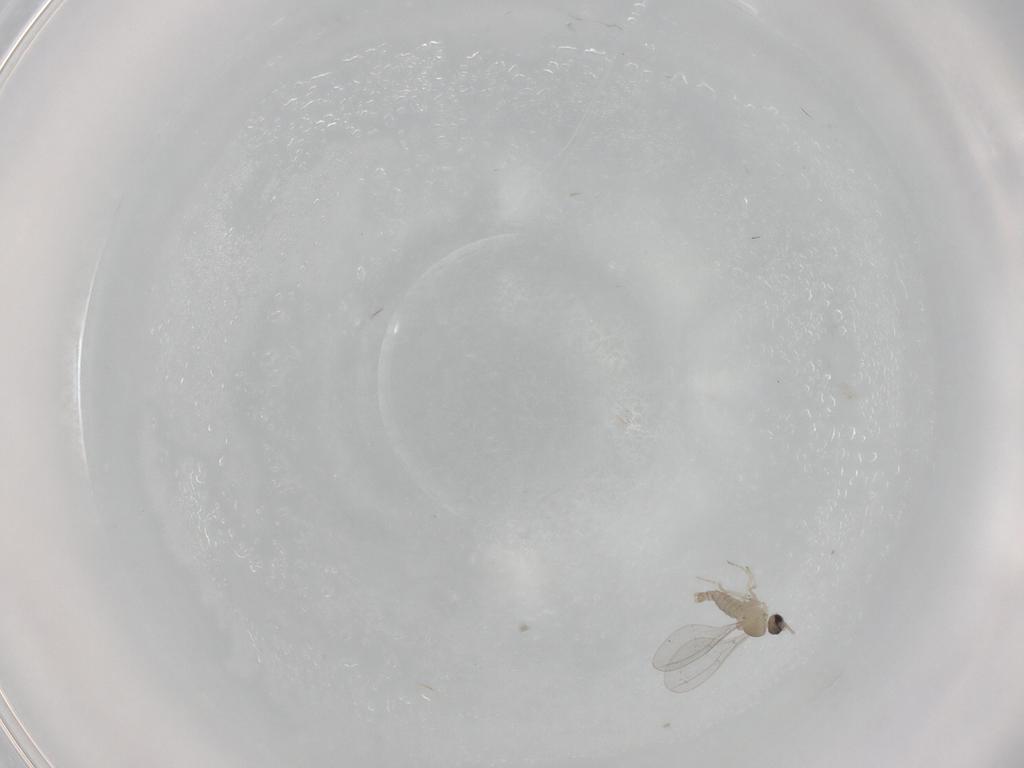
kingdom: Animalia
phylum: Arthropoda
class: Insecta
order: Diptera
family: Cecidomyiidae
